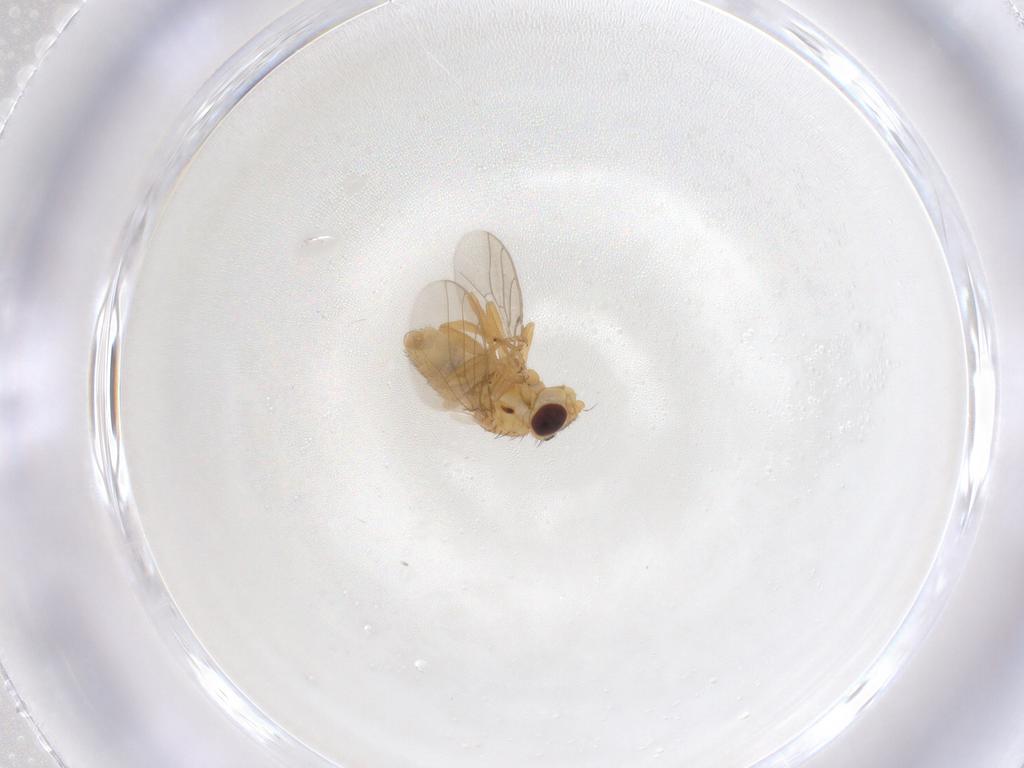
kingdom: Animalia
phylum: Arthropoda
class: Insecta
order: Diptera
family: Chloropidae
